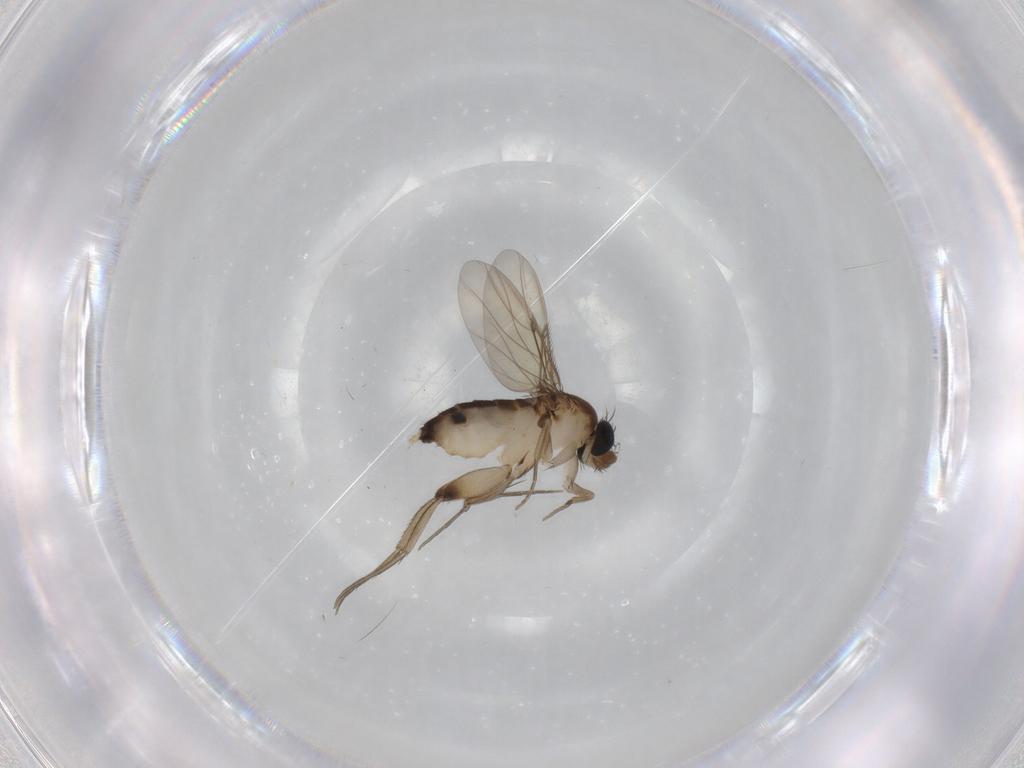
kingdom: Animalia
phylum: Arthropoda
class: Insecta
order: Diptera
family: Phoridae
